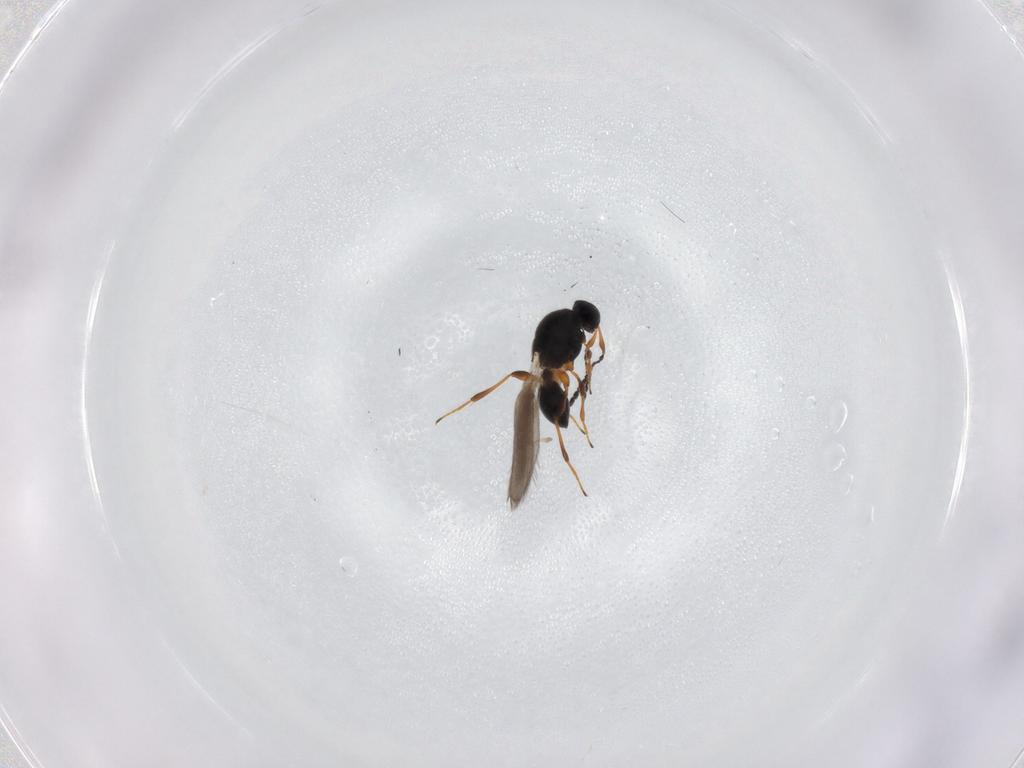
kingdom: Animalia
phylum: Arthropoda
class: Insecta
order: Hymenoptera
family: Platygastridae
